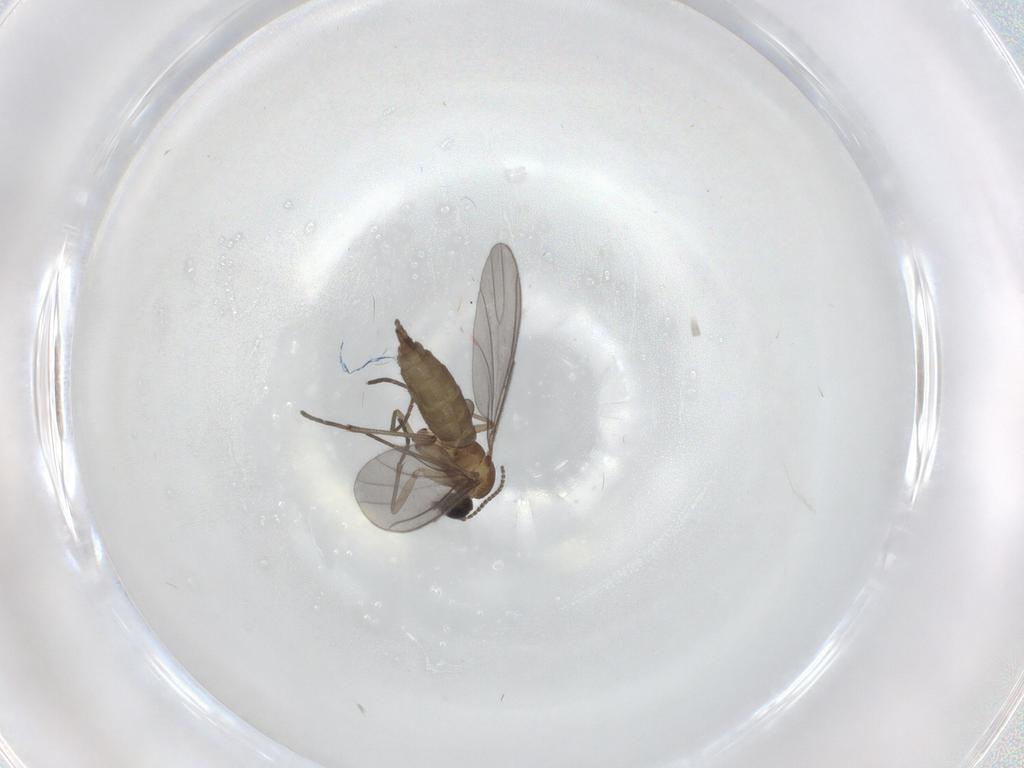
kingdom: Animalia
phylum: Arthropoda
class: Insecta
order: Diptera
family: Sciaridae
